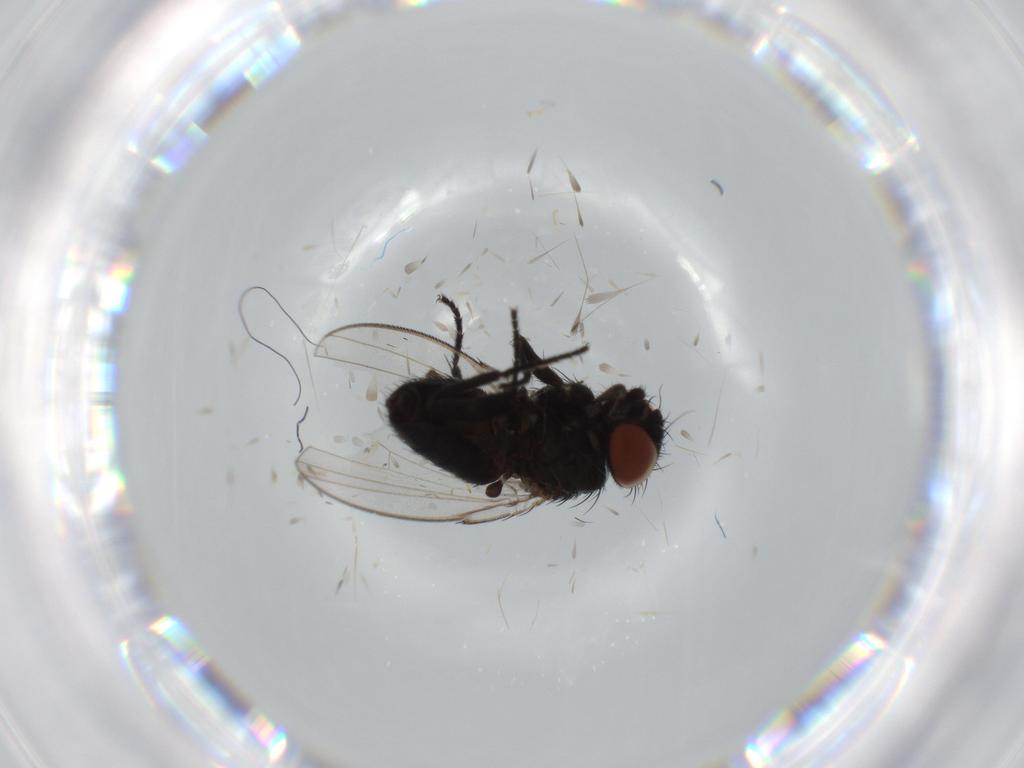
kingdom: Animalia
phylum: Arthropoda
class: Insecta
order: Diptera
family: Milichiidae
